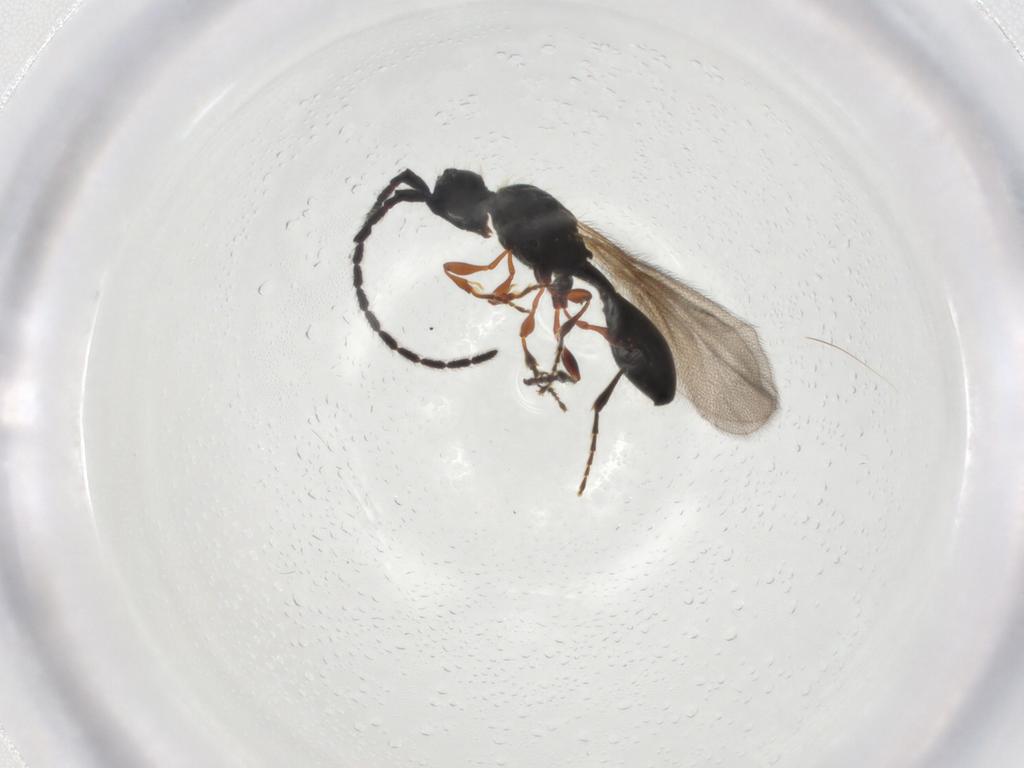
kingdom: Animalia
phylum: Arthropoda
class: Insecta
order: Hymenoptera
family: Diapriidae
